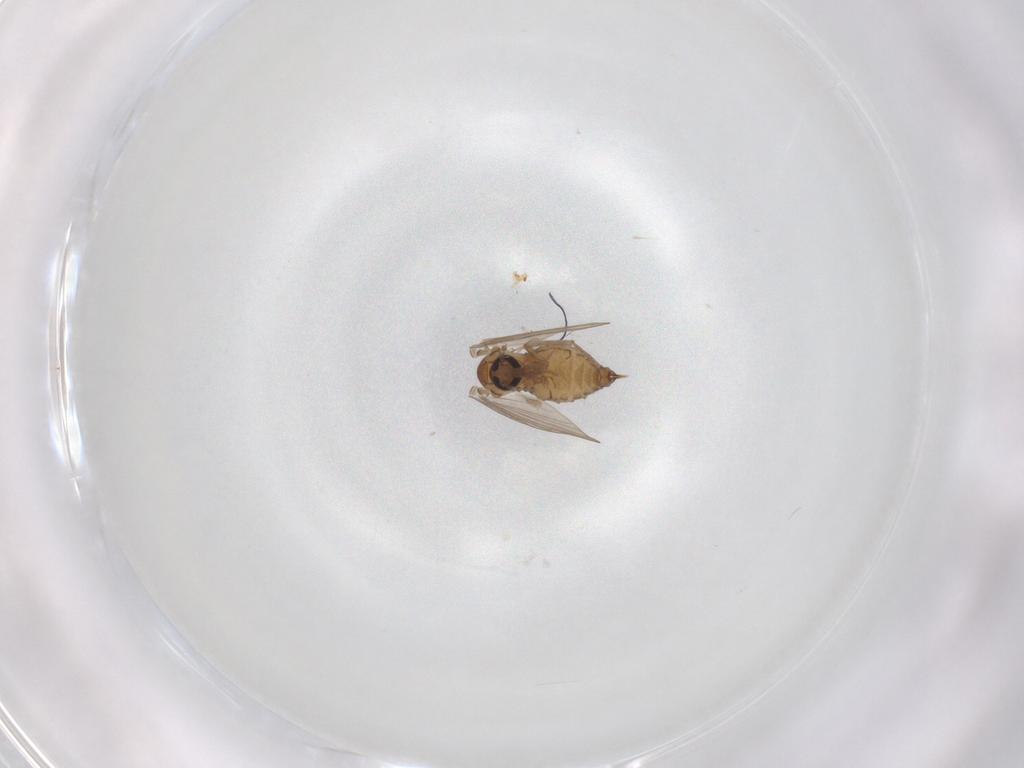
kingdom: Animalia
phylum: Arthropoda
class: Insecta
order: Diptera
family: Psychodidae
